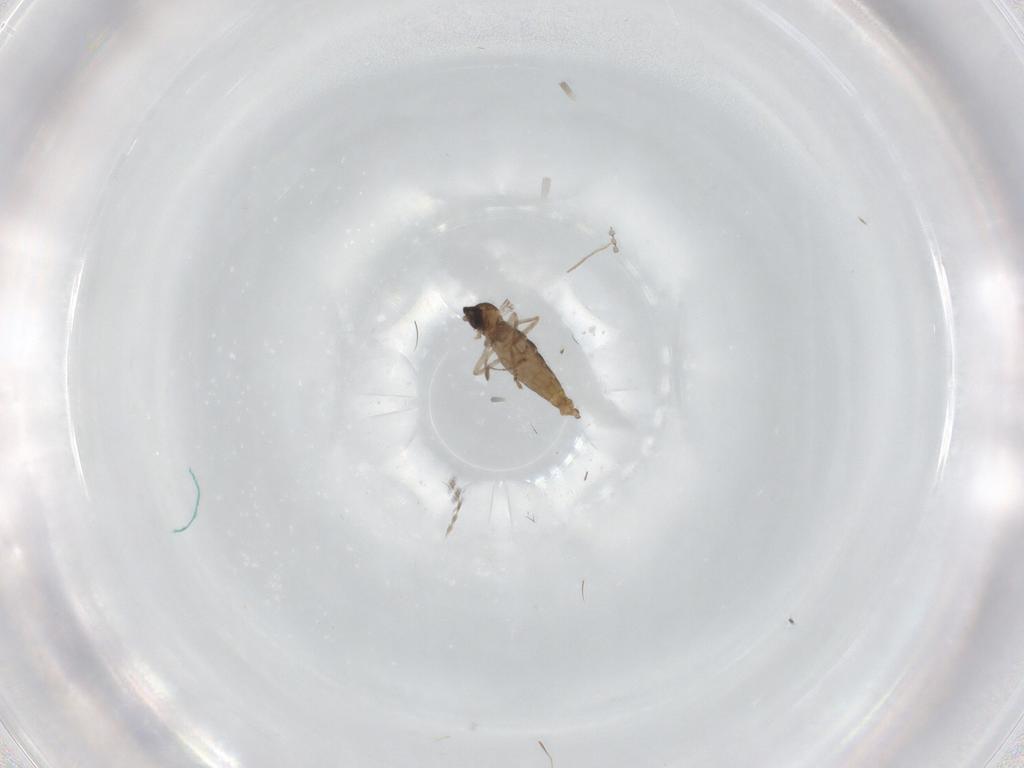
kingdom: Animalia
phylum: Arthropoda
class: Insecta
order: Diptera
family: Cecidomyiidae
